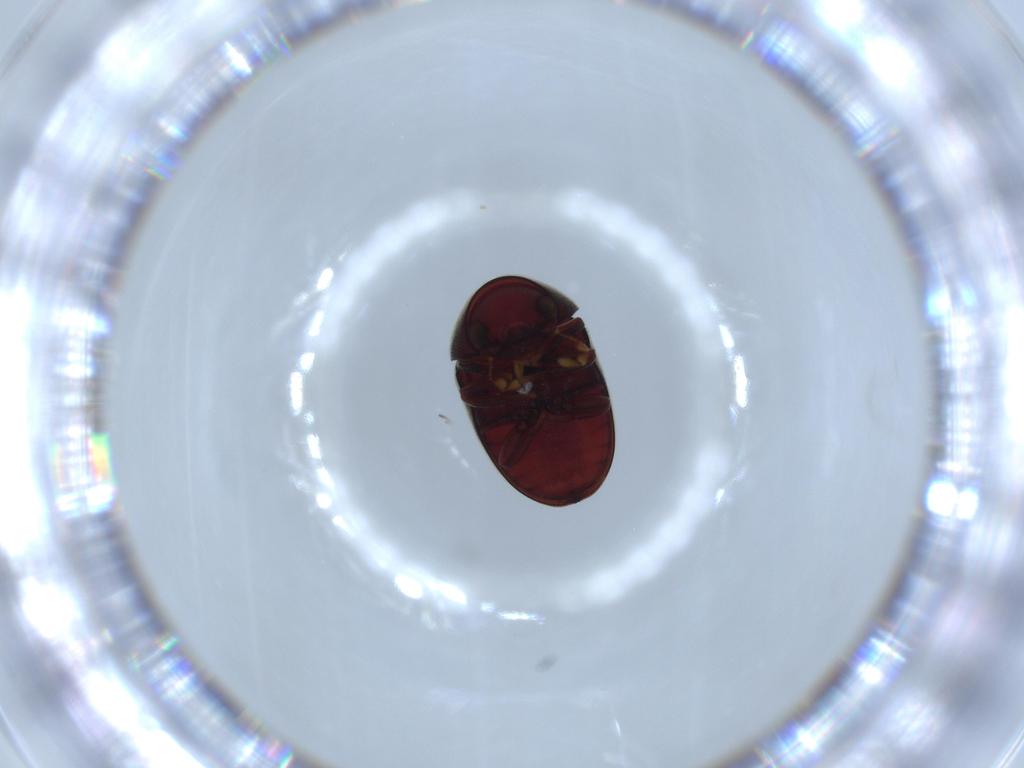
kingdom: Animalia
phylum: Arthropoda
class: Insecta
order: Coleoptera
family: Ptinidae
